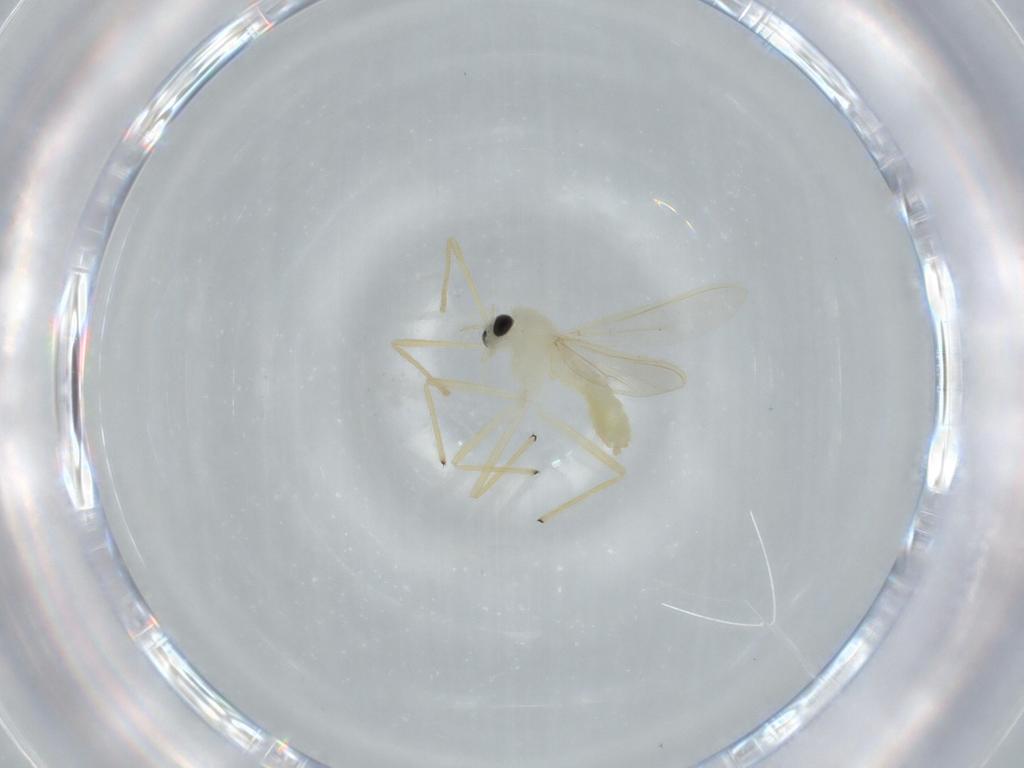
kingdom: Animalia
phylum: Arthropoda
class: Insecta
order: Diptera
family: Chironomidae
